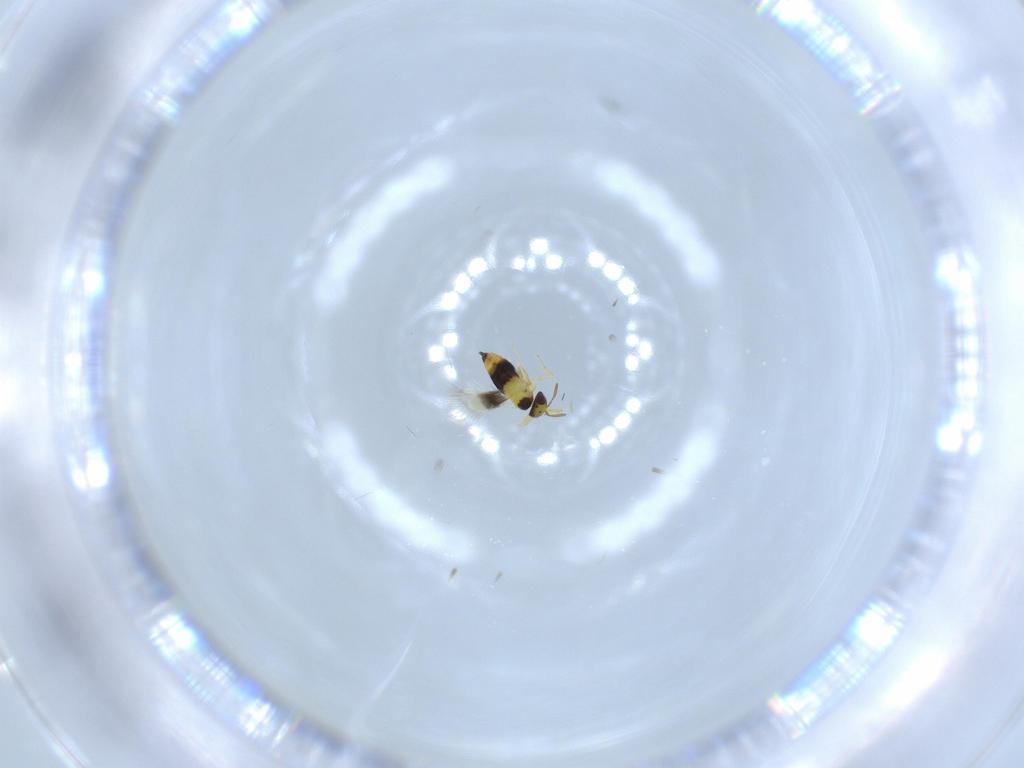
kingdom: Animalia
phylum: Arthropoda
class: Insecta
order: Hymenoptera
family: Signiphoridae
